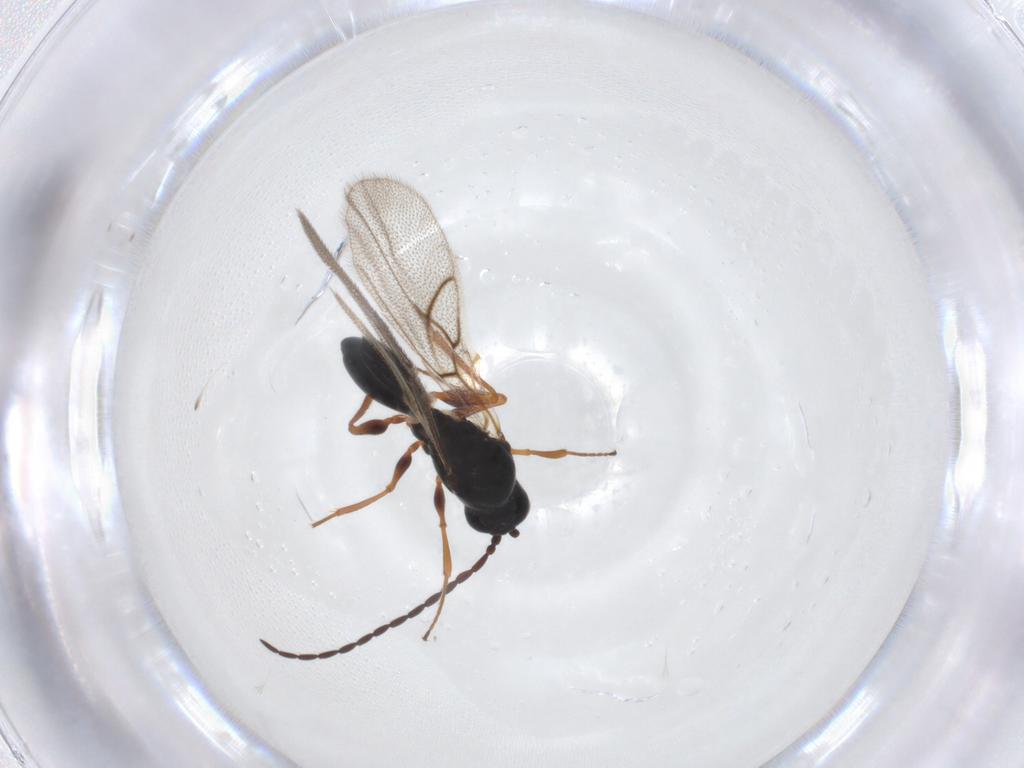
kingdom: Animalia
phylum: Arthropoda
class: Insecta
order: Hymenoptera
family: Figitidae
